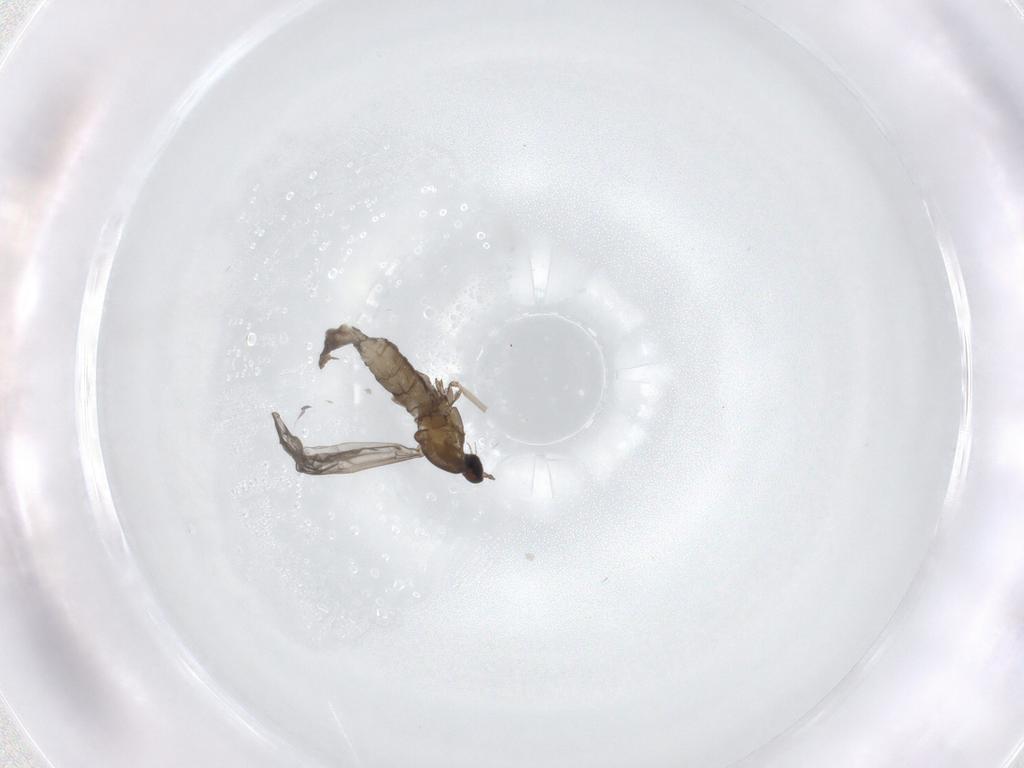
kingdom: Animalia
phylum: Arthropoda
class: Insecta
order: Diptera
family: Cecidomyiidae
